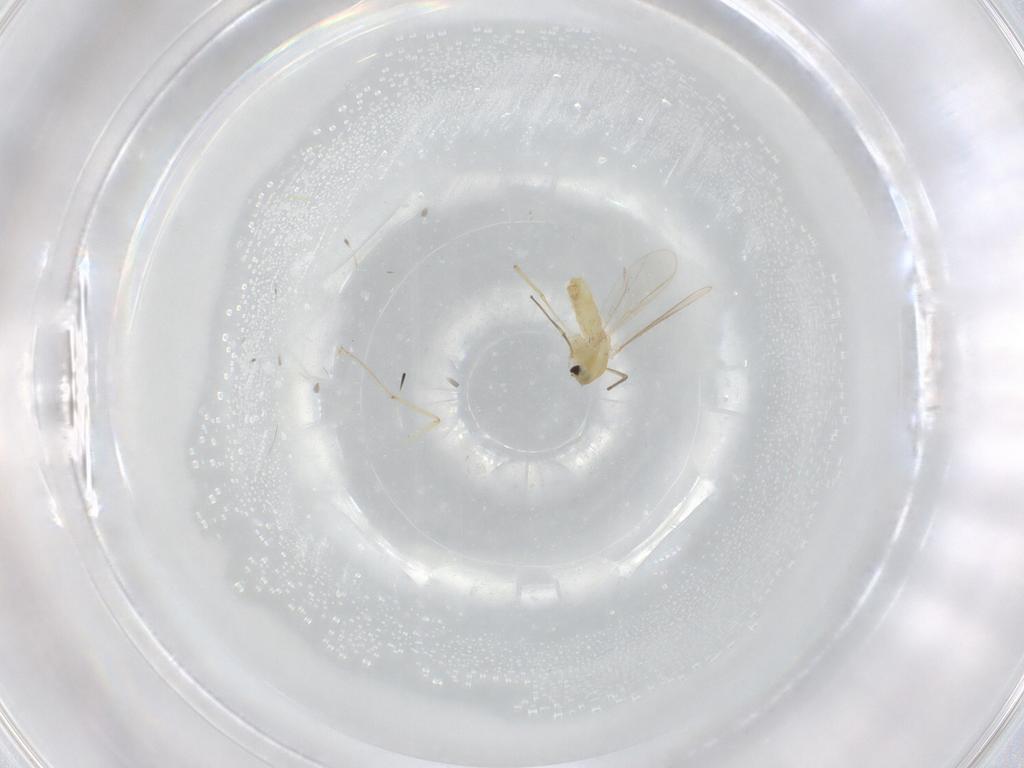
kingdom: Animalia
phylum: Arthropoda
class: Insecta
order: Diptera
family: Chironomidae
